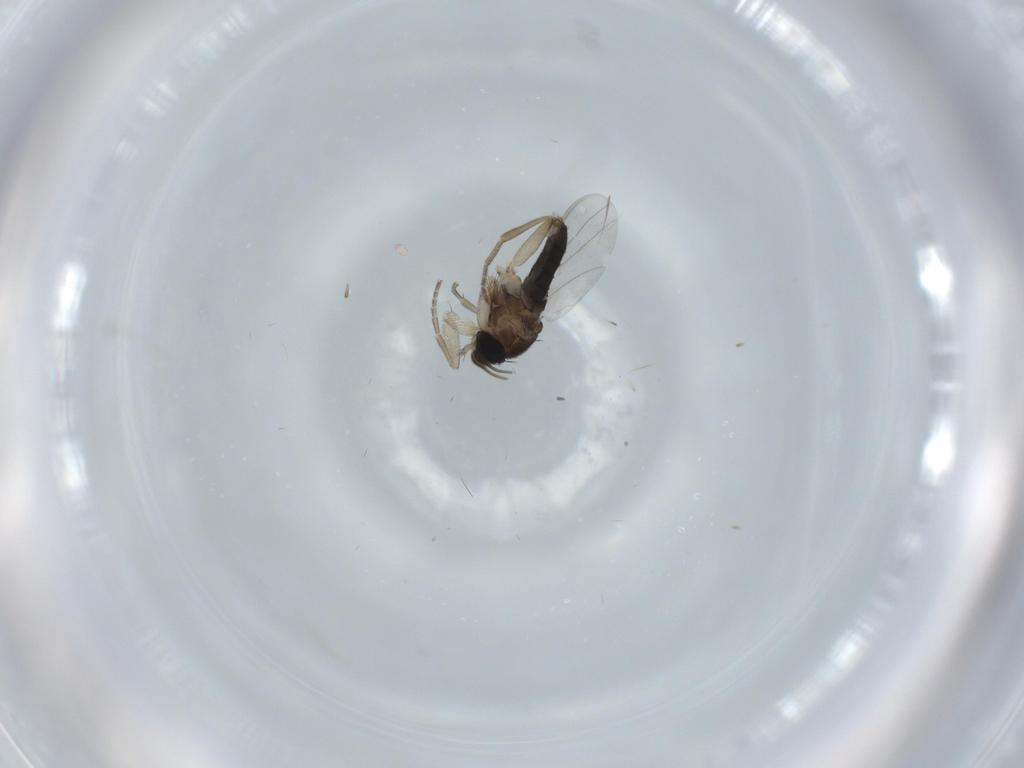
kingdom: Animalia
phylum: Arthropoda
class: Insecta
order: Diptera
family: Phoridae
